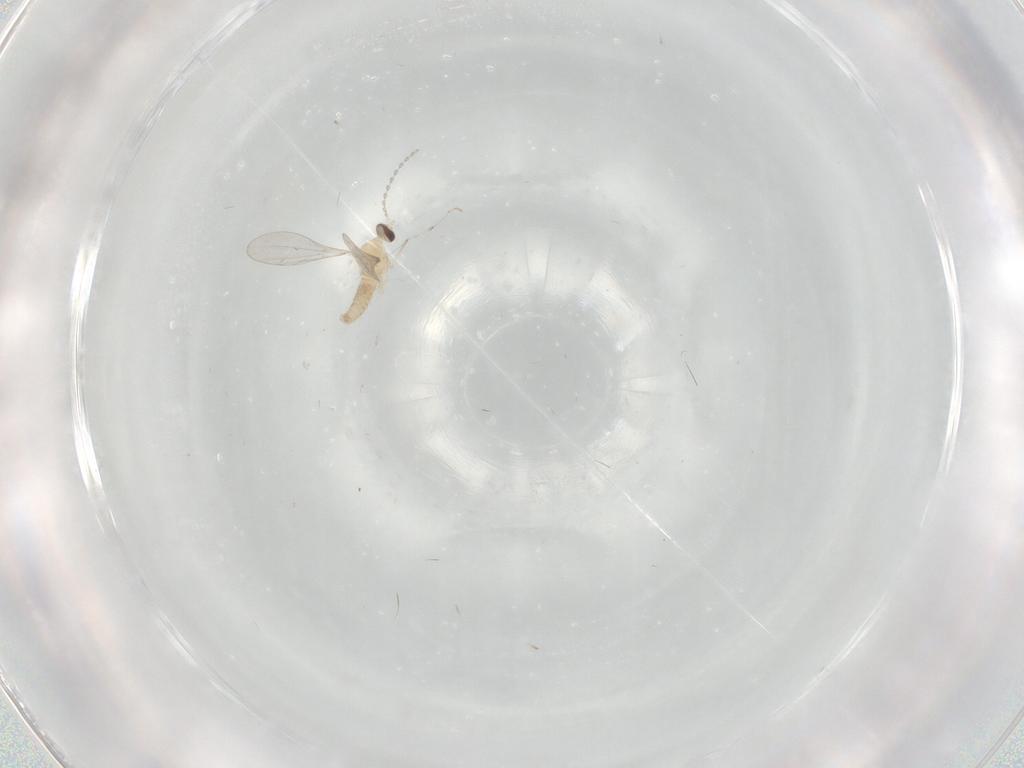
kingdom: Animalia
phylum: Arthropoda
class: Insecta
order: Diptera
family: Cecidomyiidae
